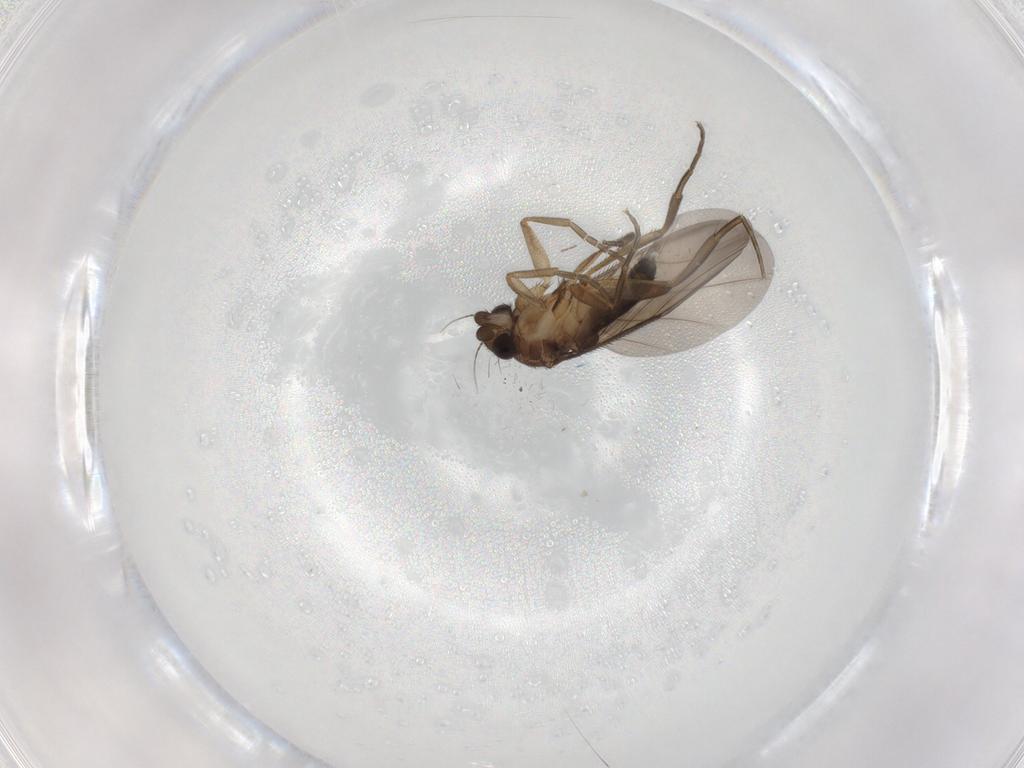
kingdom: Animalia
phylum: Arthropoda
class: Insecta
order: Diptera
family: Phoridae
